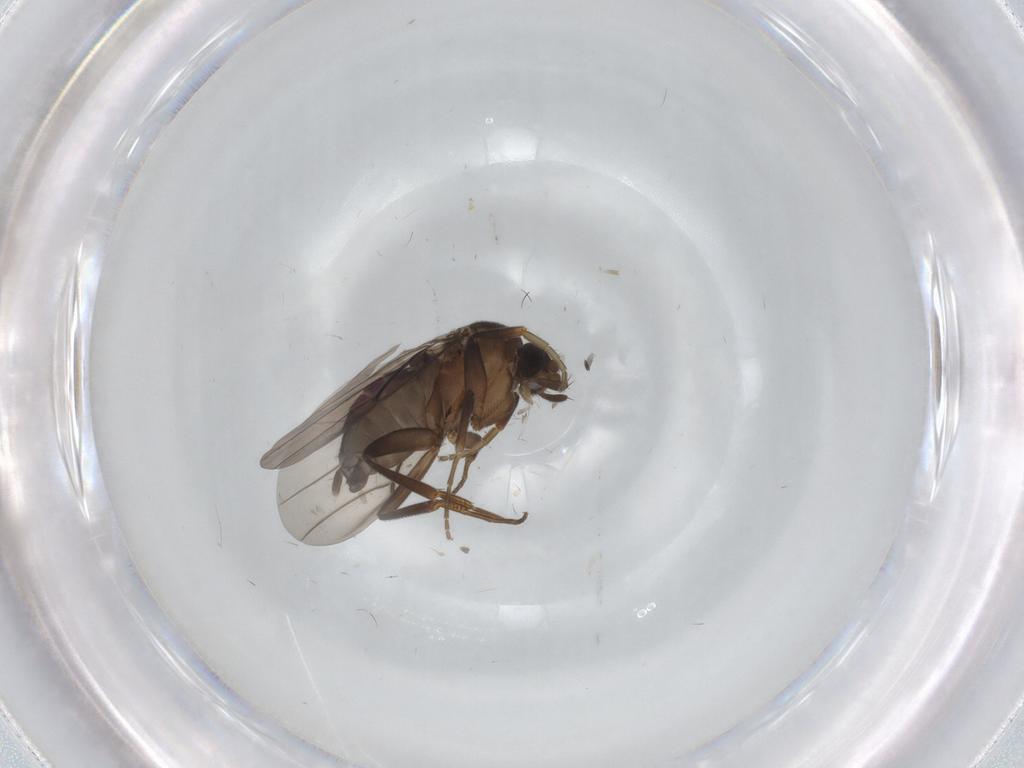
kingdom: Animalia
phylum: Arthropoda
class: Insecta
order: Diptera
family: Phoridae
